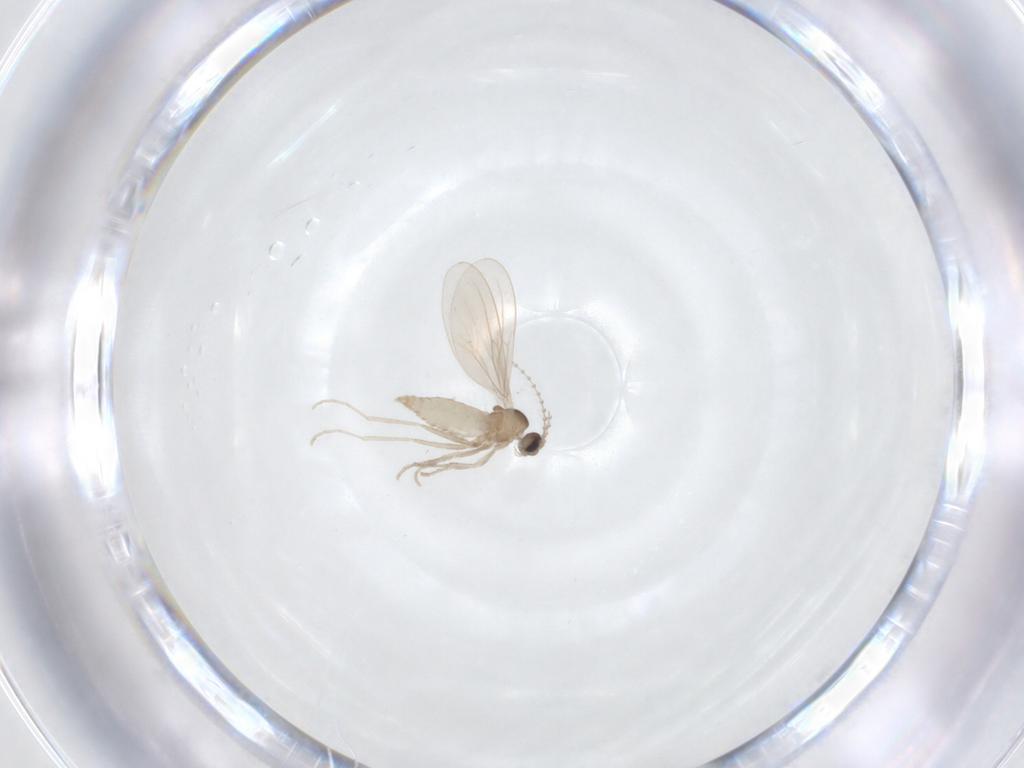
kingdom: Animalia
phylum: Arthropoda
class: Insecta
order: Diptera
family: Cecidomyiidae
